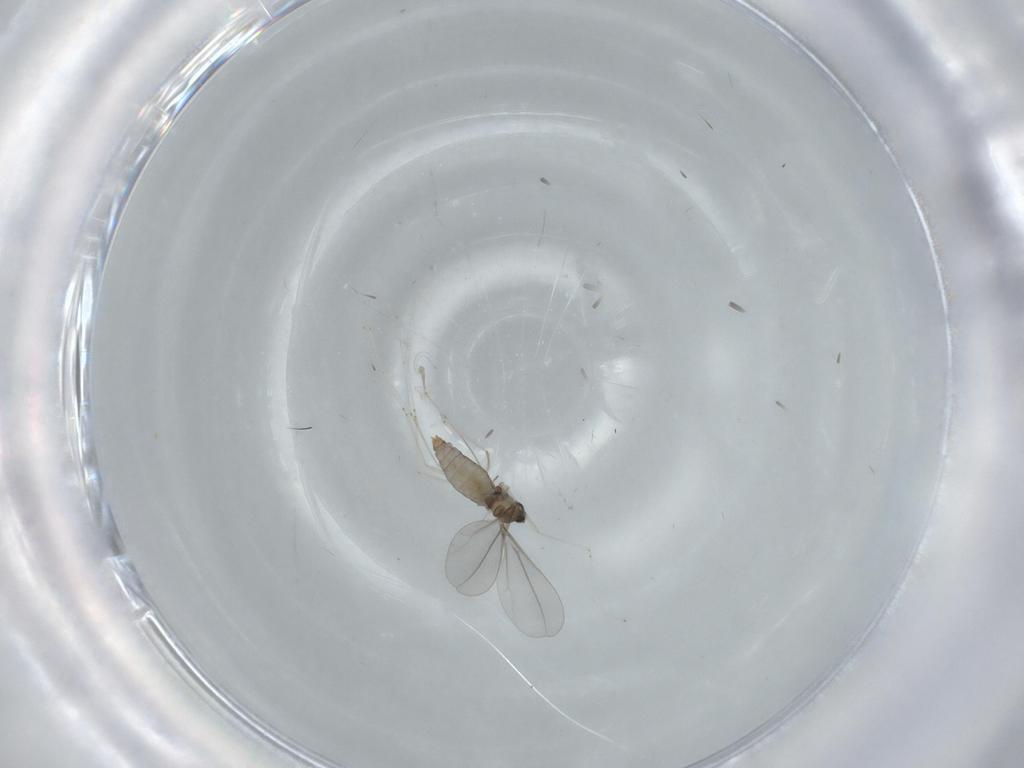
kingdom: Animalia
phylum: Arthropoda
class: Insecta
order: Diptera
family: Cecidomyiidae
